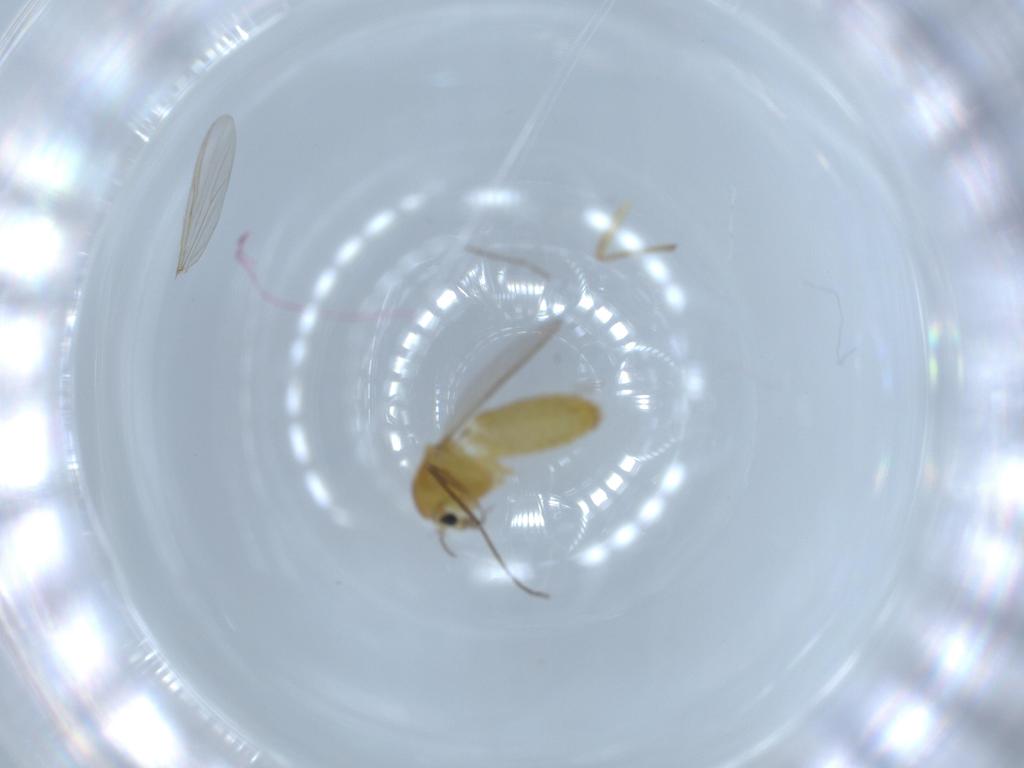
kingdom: Animalia
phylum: Arthropoda
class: Insecta
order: Diptera
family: Chironomidae
